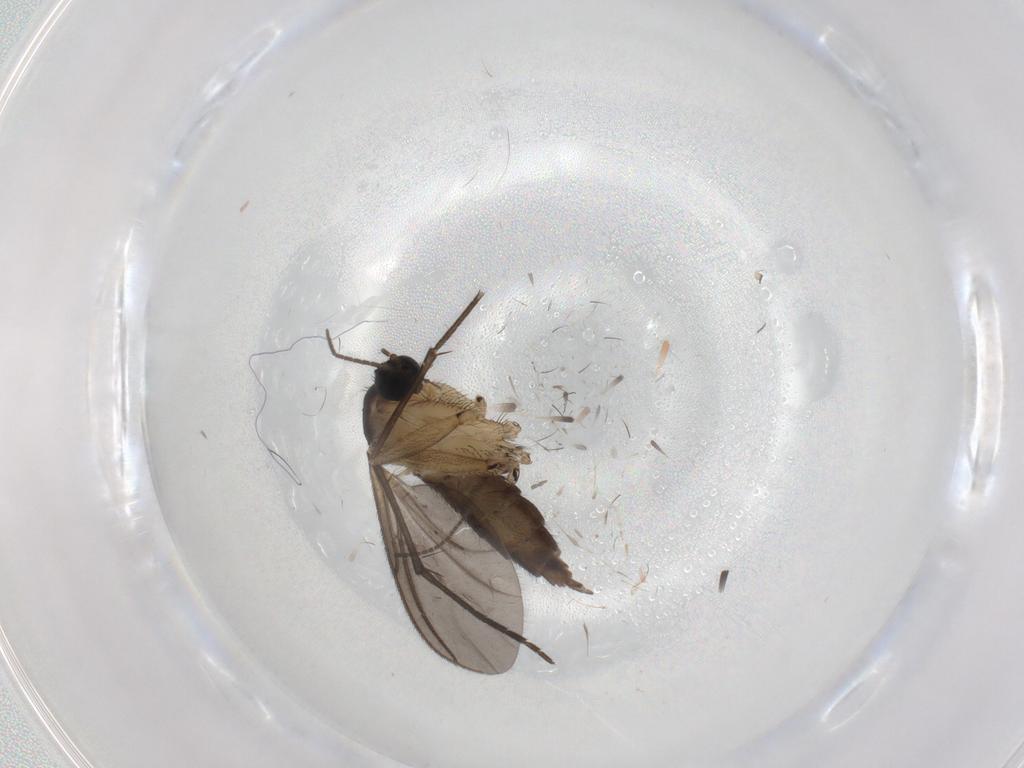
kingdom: Animalia
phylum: Arthropoda
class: Insecta
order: Diptera
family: Sciaridae
